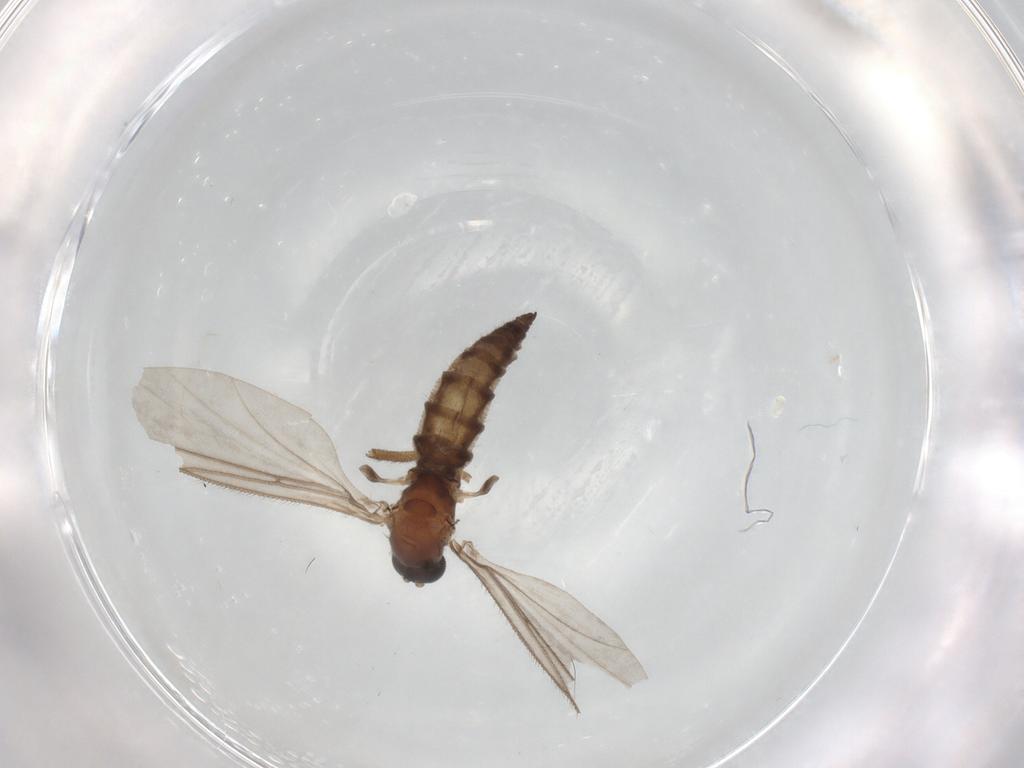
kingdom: Animalia
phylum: Arthropoda
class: Insecta
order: Diptera
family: Sciaridae
